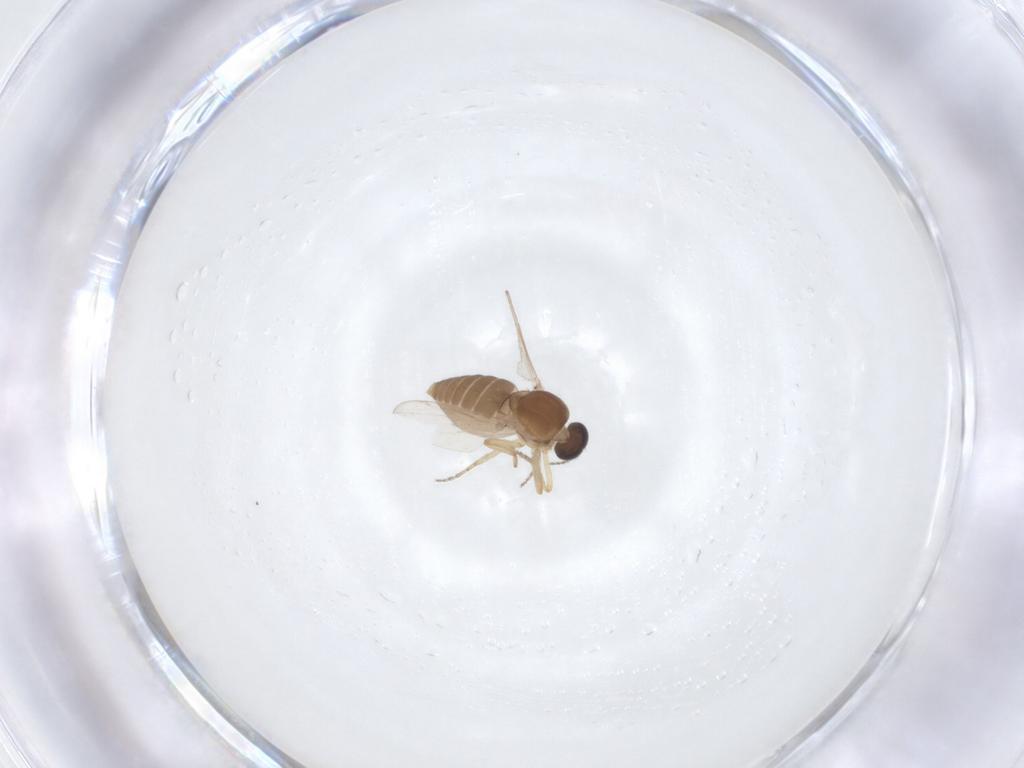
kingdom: Animalia
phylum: Arthropoda
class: Insecta
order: Diptera
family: Ceratopogonidae
